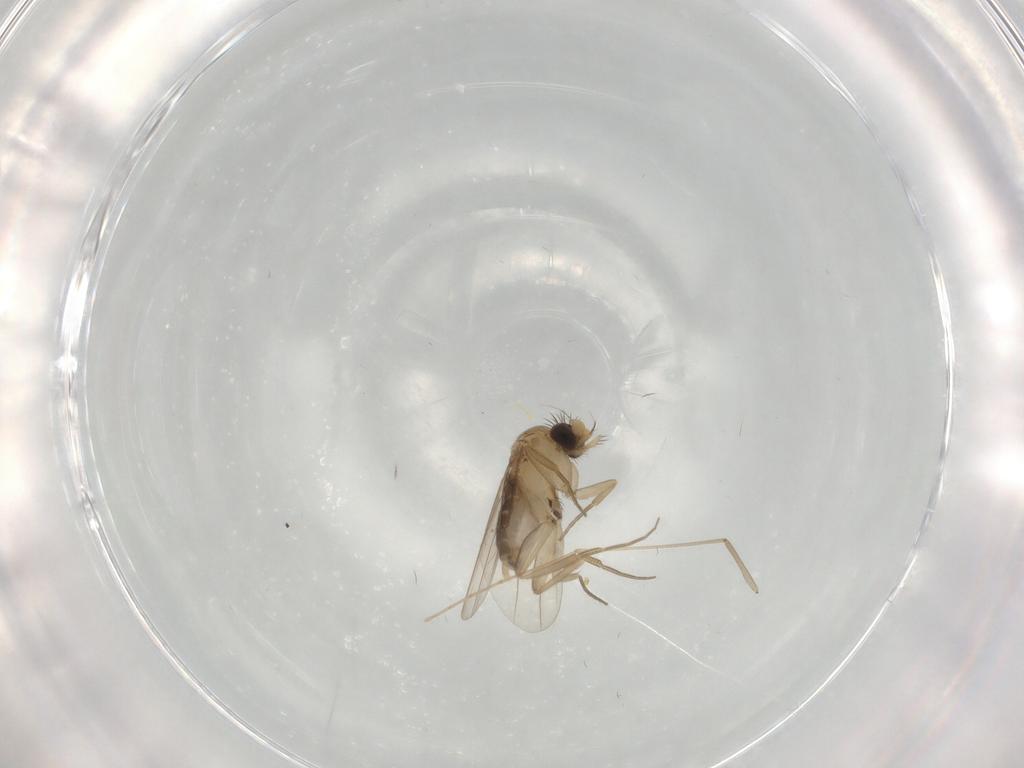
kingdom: Animalia
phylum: Arthropoda
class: Insecta
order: Diptera
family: Phoridae
